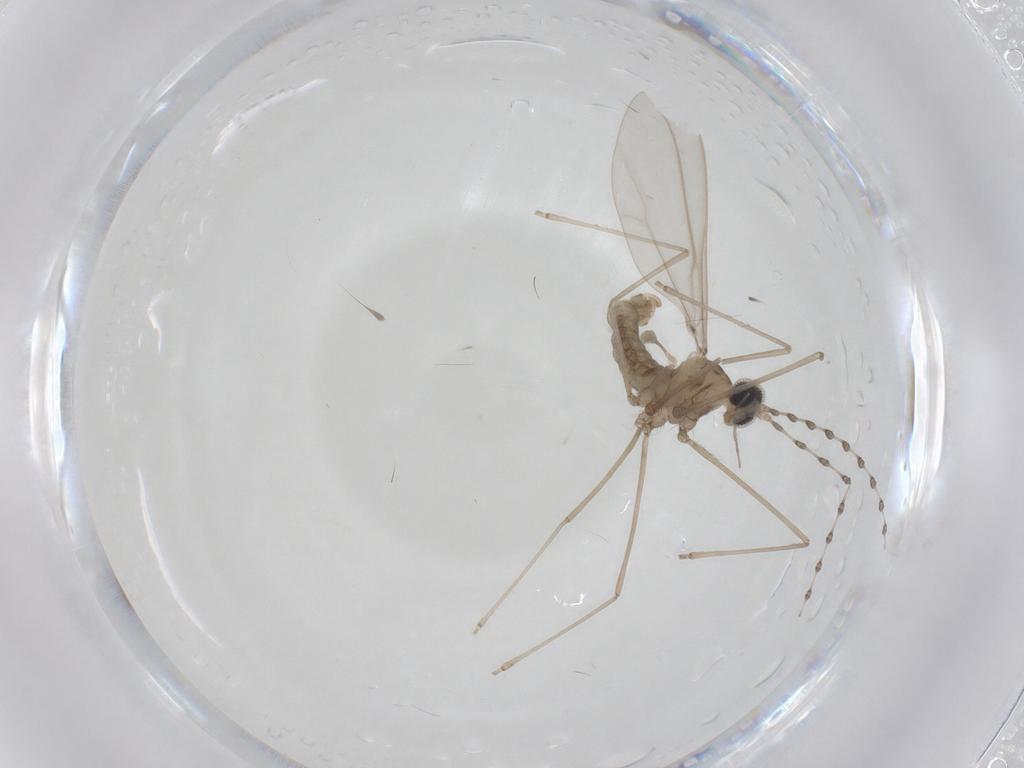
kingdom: Animalia
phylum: Arthropoda
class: Insecta
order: Diptera
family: Cecidomyiidae
